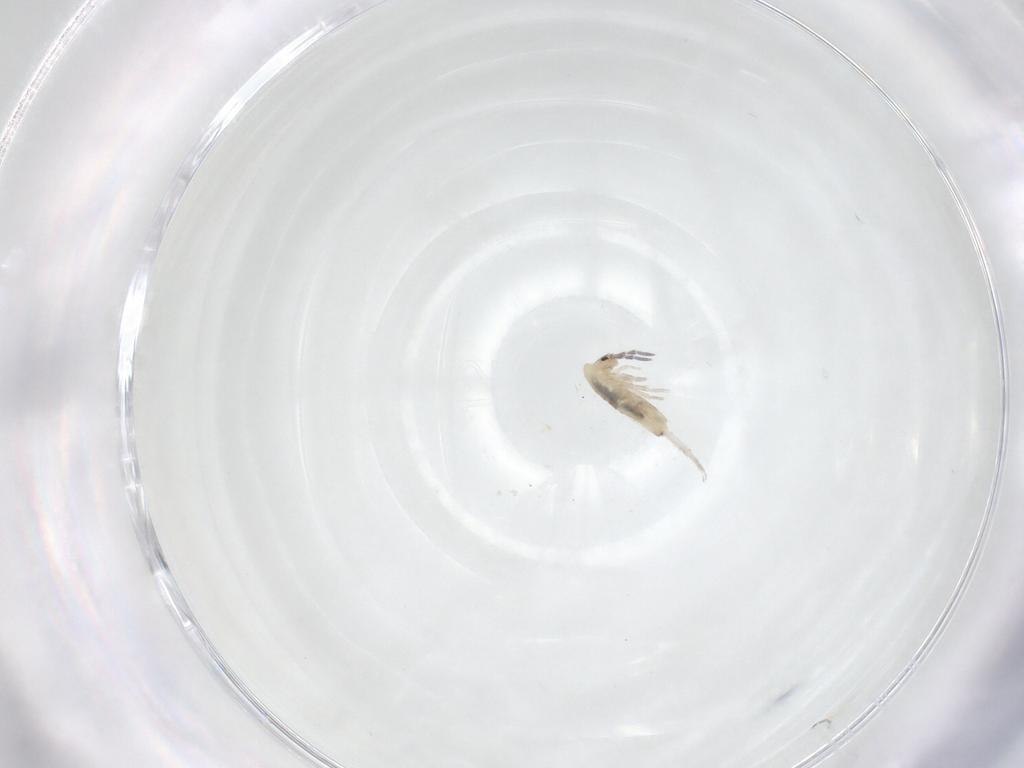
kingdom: Animalia
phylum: Arthropoda
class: Collembola
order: Entomobryomorpha
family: Entomobryidae
